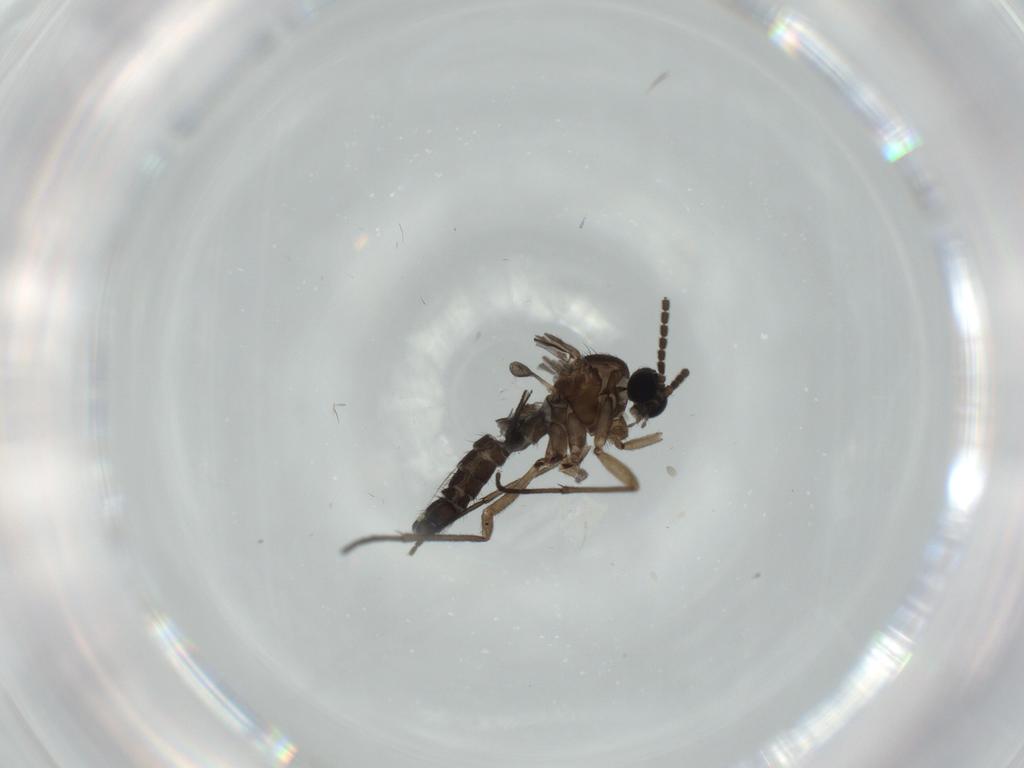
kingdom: Animalia
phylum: Arthropoda
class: Insecta
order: Diptera
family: Sciaridae
